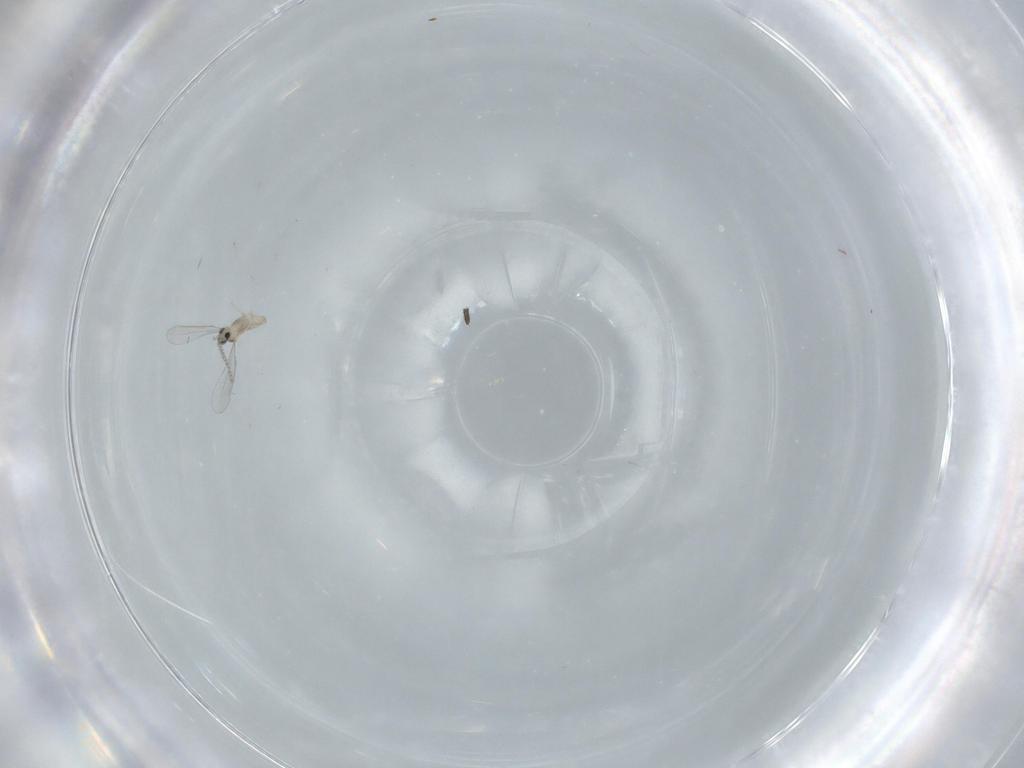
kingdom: Animalia
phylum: Arthropoda
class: Insecta
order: Diptera
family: Cecidomyiidae
